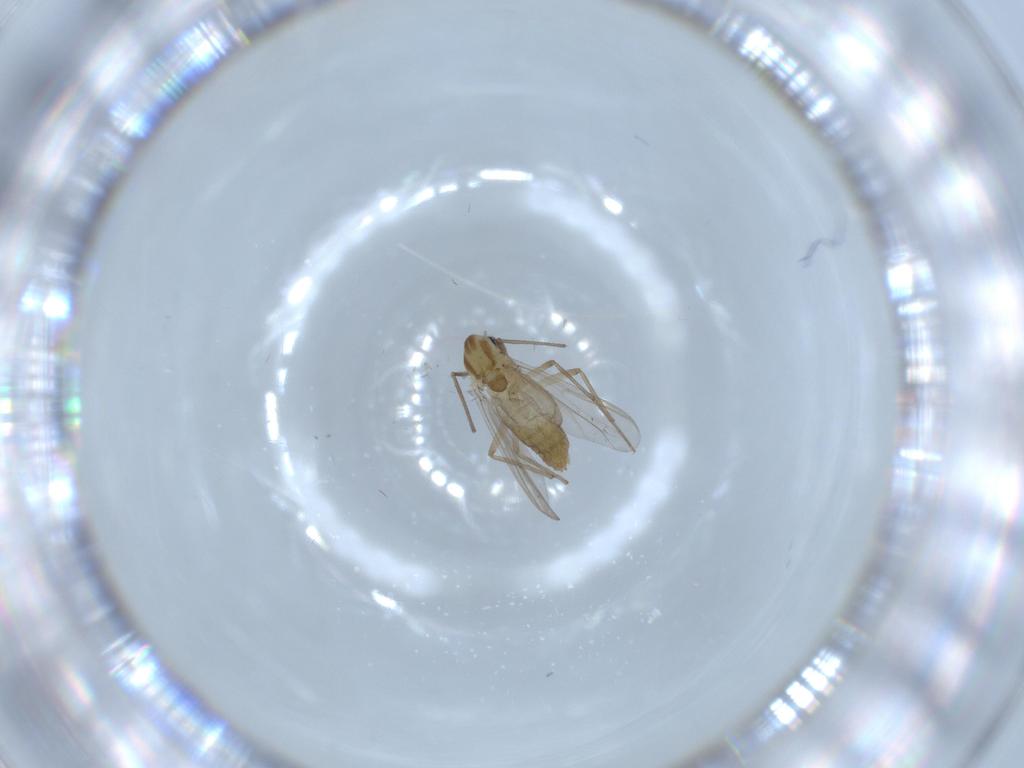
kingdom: Animalia
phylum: Arthropoda
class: Insecta
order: Diptera
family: Chironomidae
